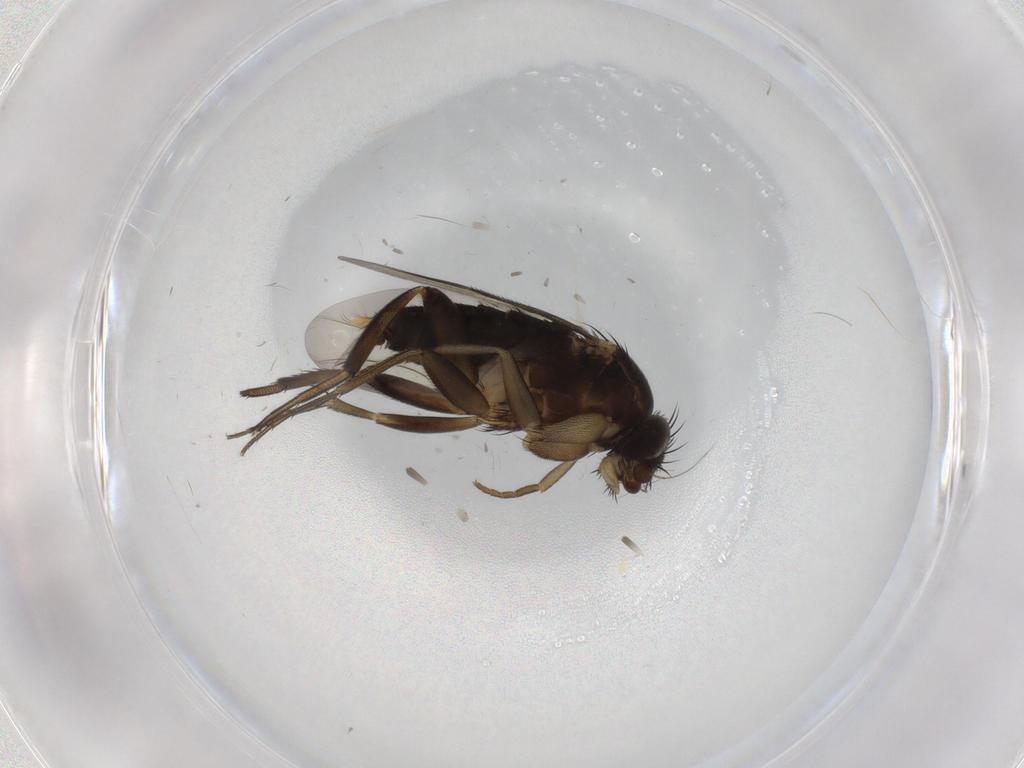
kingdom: Animalia
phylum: Arthropoda
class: Insecta
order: Diptera
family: Phoridae
